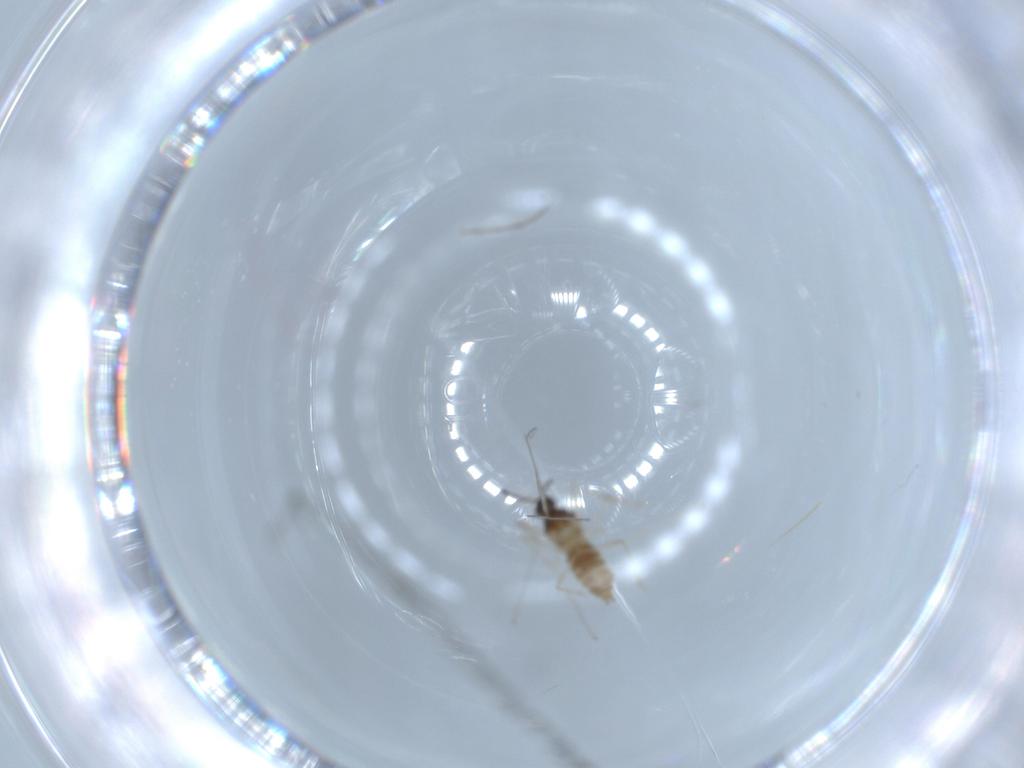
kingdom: Animalia
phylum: Arthropoda
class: Insecta
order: Diptera
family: Cecidomyiidae
